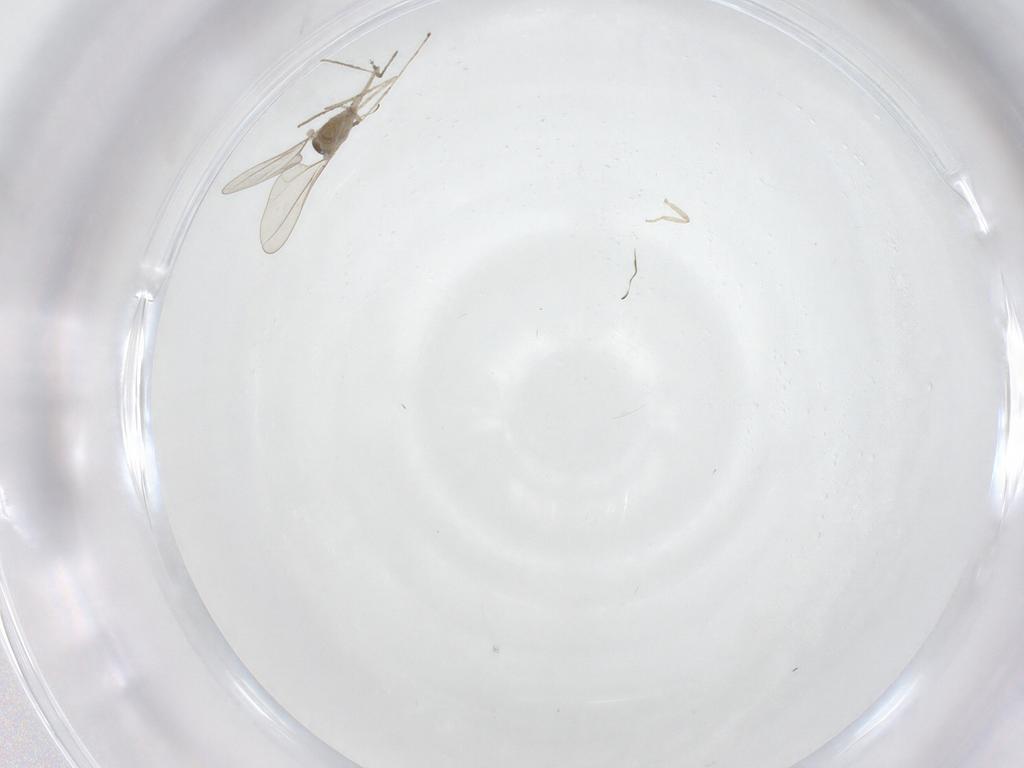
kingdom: Animalia
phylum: Arthropoda
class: Insecta
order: Diptera
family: Cecidomyiidae
